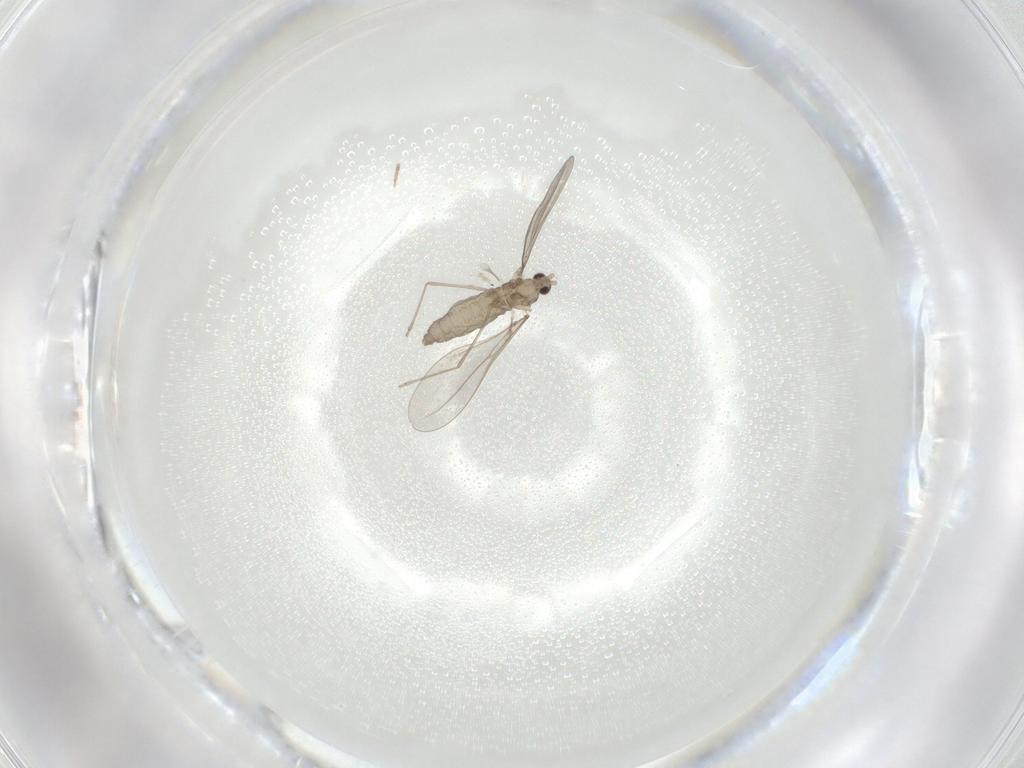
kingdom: Animalia
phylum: Arthropoda
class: Insecta
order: Diptera
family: Cecidomyiidae
